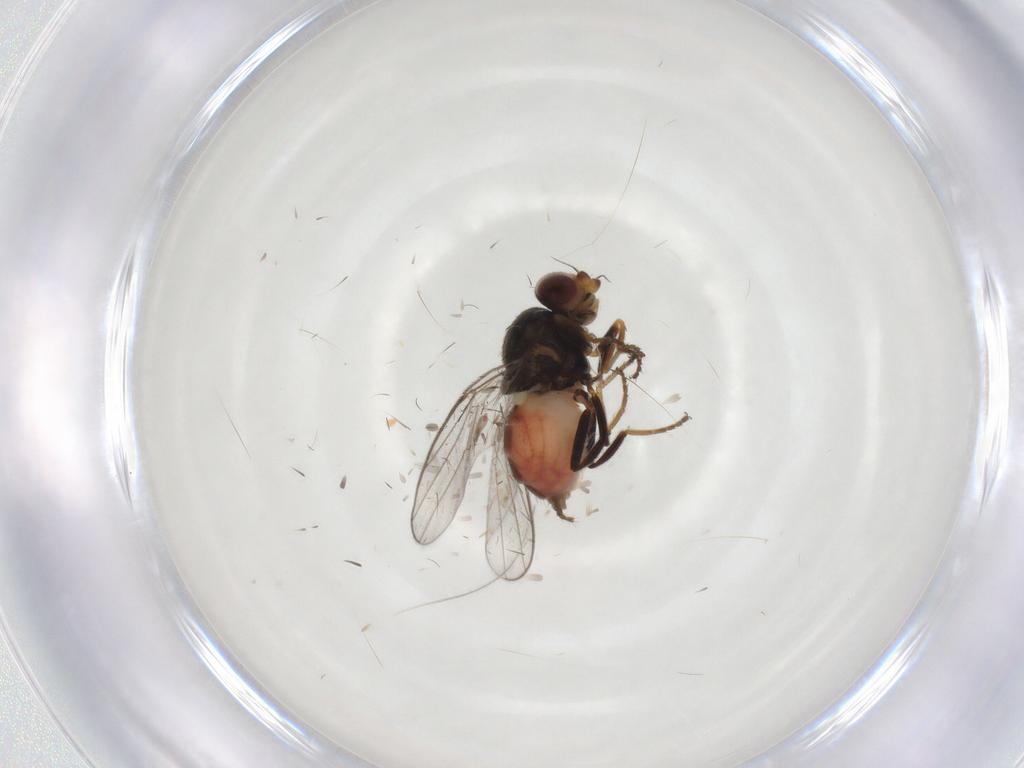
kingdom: Animalia
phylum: Arthropoda
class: Insecta
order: Diptera
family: Chloropidae
